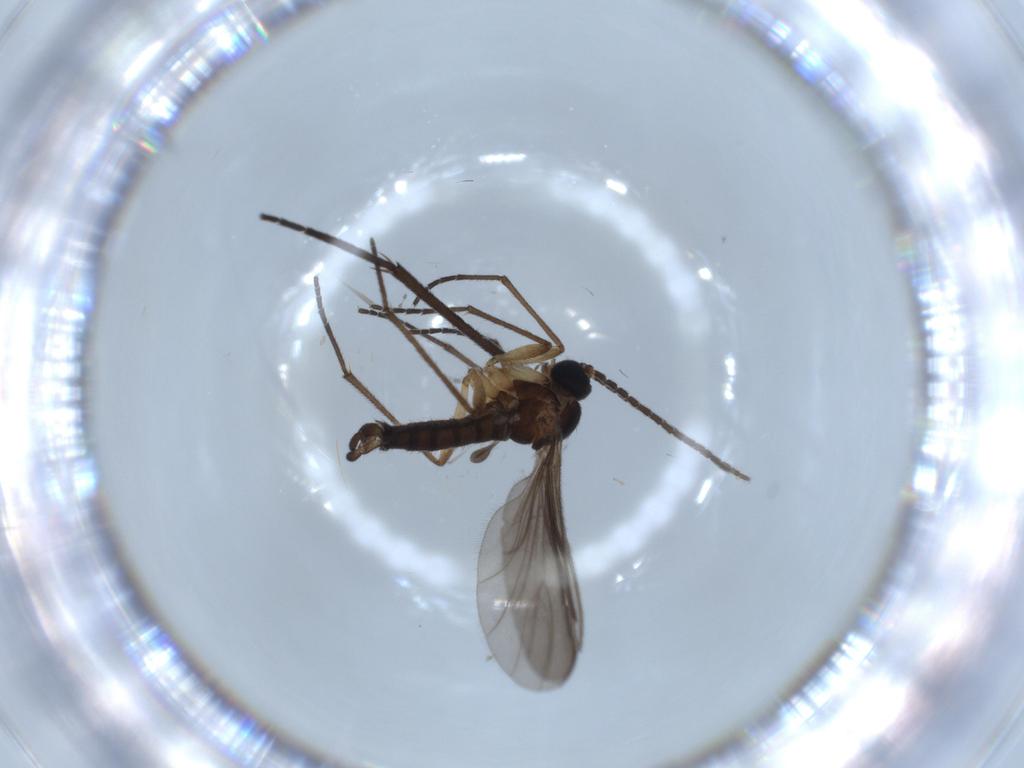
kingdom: Animalia
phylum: Arthropoda
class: Insecta
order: Diptera
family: Sciaridae
